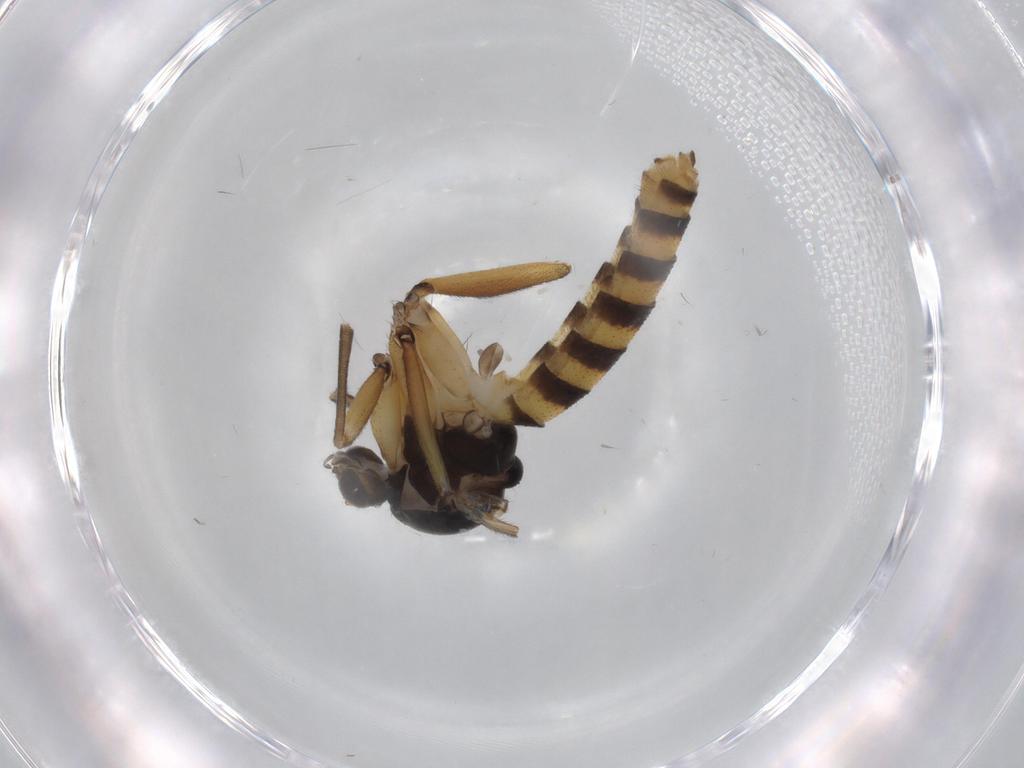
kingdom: Animalia
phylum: Arthropoda
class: Insecta
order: Diptera
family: Mycetophilidae
